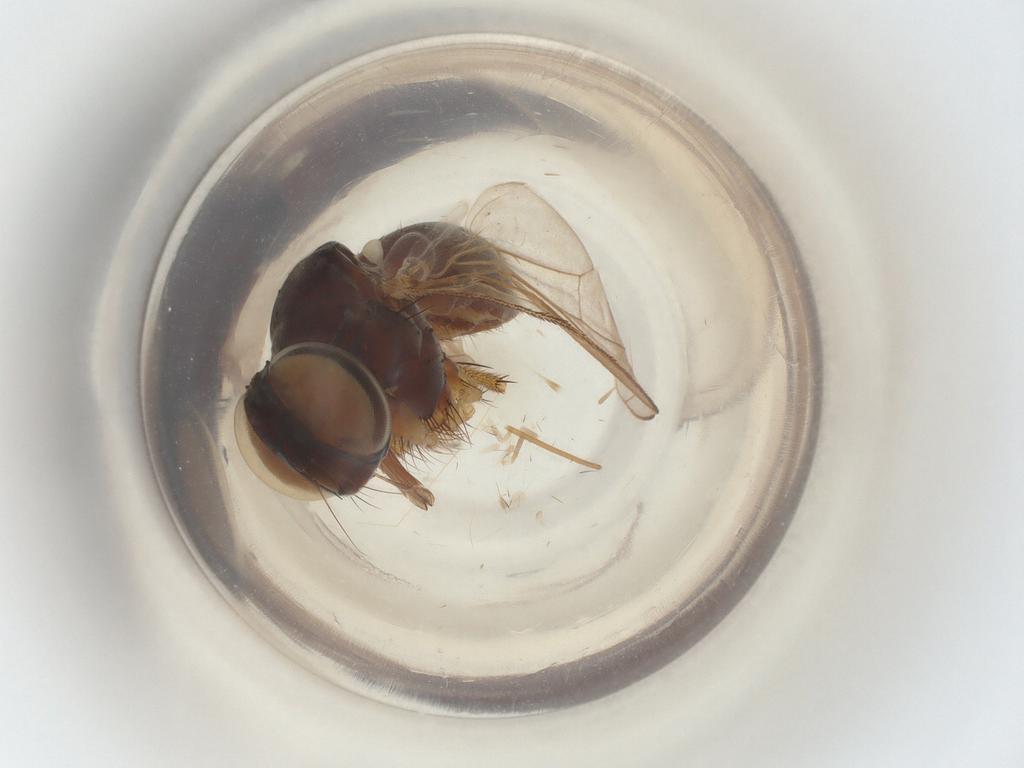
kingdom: Animalia
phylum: Arthropoda
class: Insecta
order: Diptera
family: Muscidae
